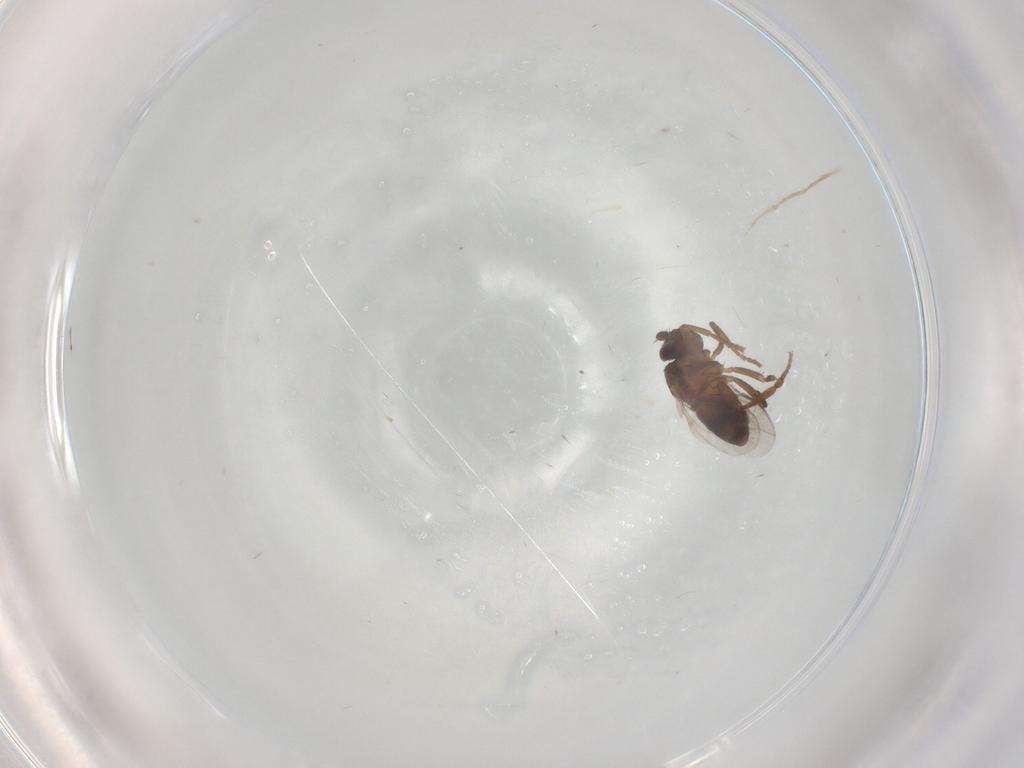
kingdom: Animalia
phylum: Arthropoda
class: Insecta
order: Diptera
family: Psychodidae
